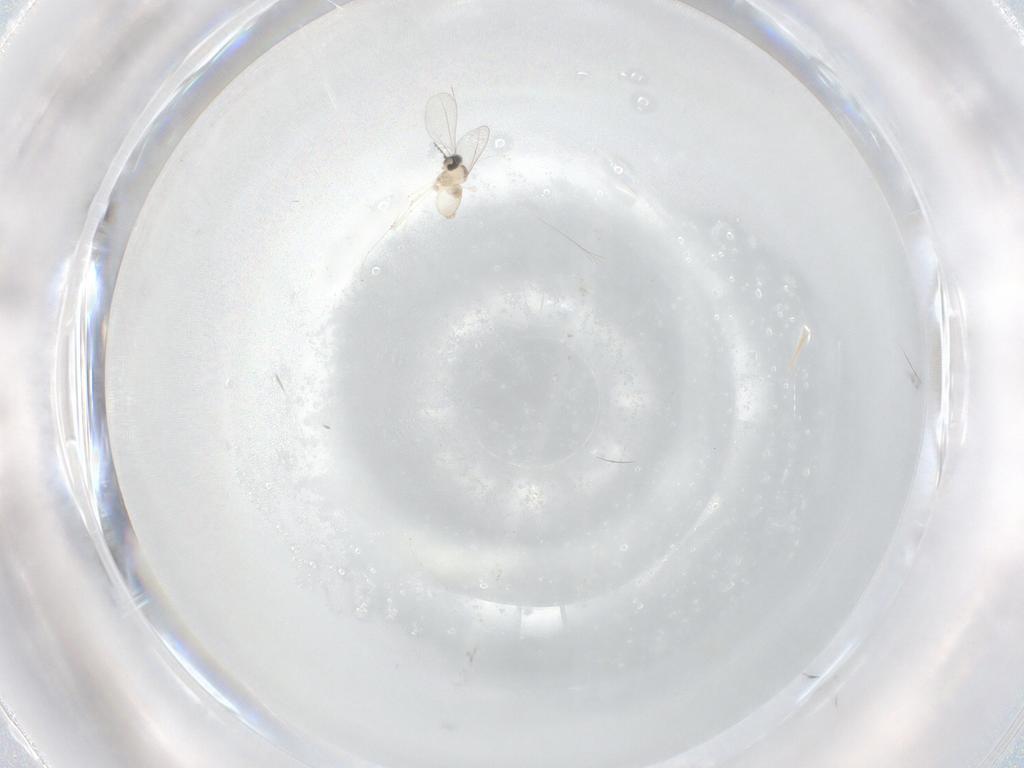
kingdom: Animalia
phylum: Arthropoda
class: Insecta
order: Diptera
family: Cecidomyiidae
